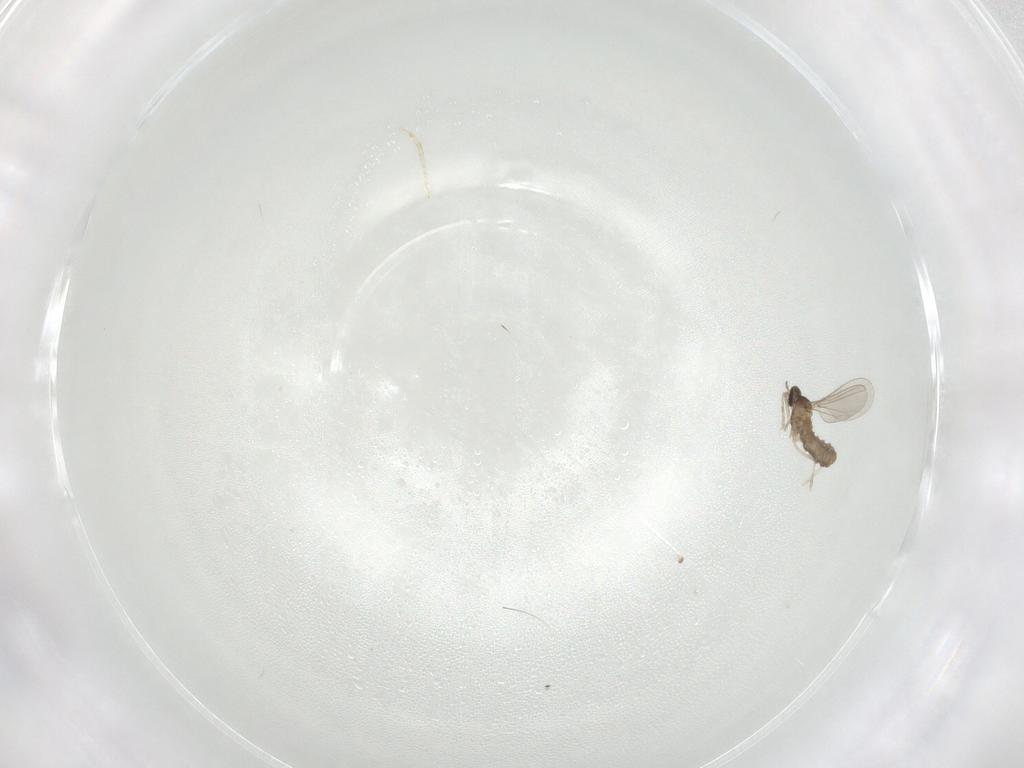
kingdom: Animalia
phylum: Arthropoda
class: Insecta
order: Diptera
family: Cecidomyiidae
